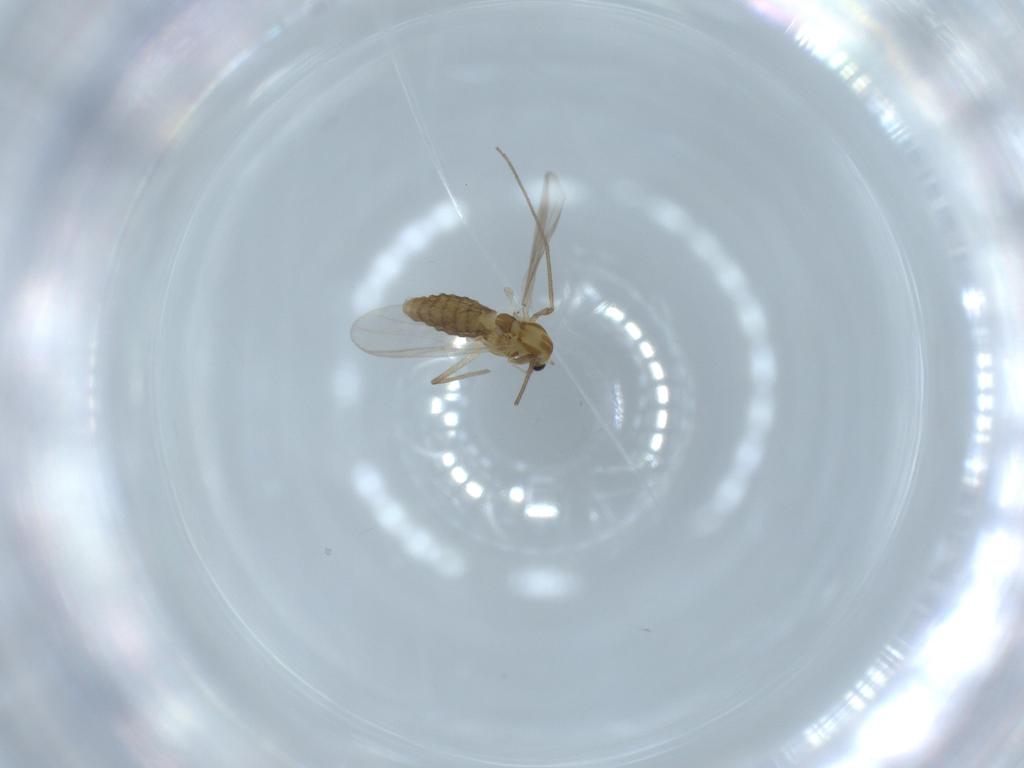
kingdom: Animalia
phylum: Arthropoda
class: Insecta
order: Diptera
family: Chironomidae
